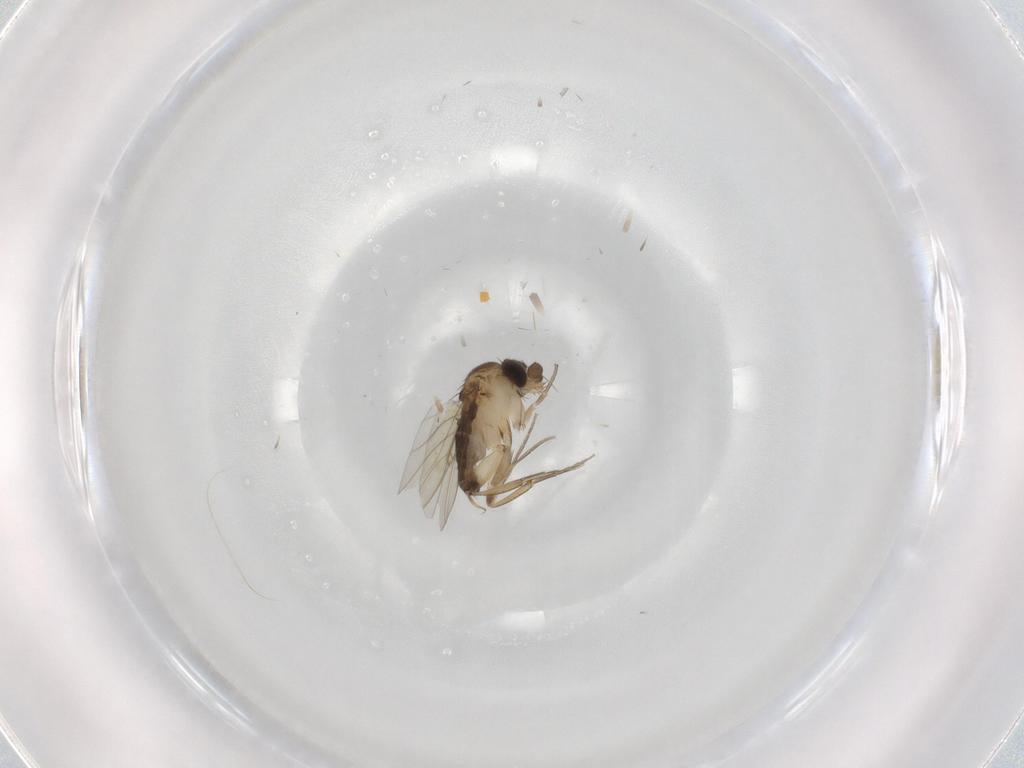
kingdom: Animalia
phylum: Arthropoda
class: Insecta
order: Diptera
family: Phoridae
